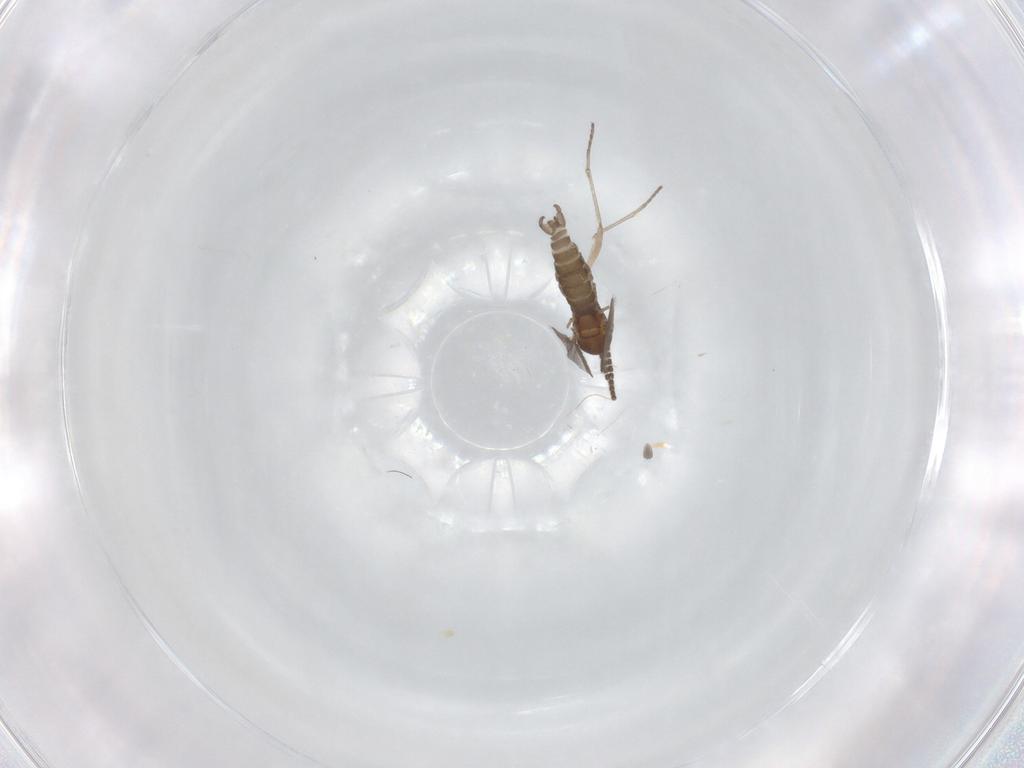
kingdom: Animalia
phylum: Arthropoda
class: Insecta
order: Diptera
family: Sciaridae
